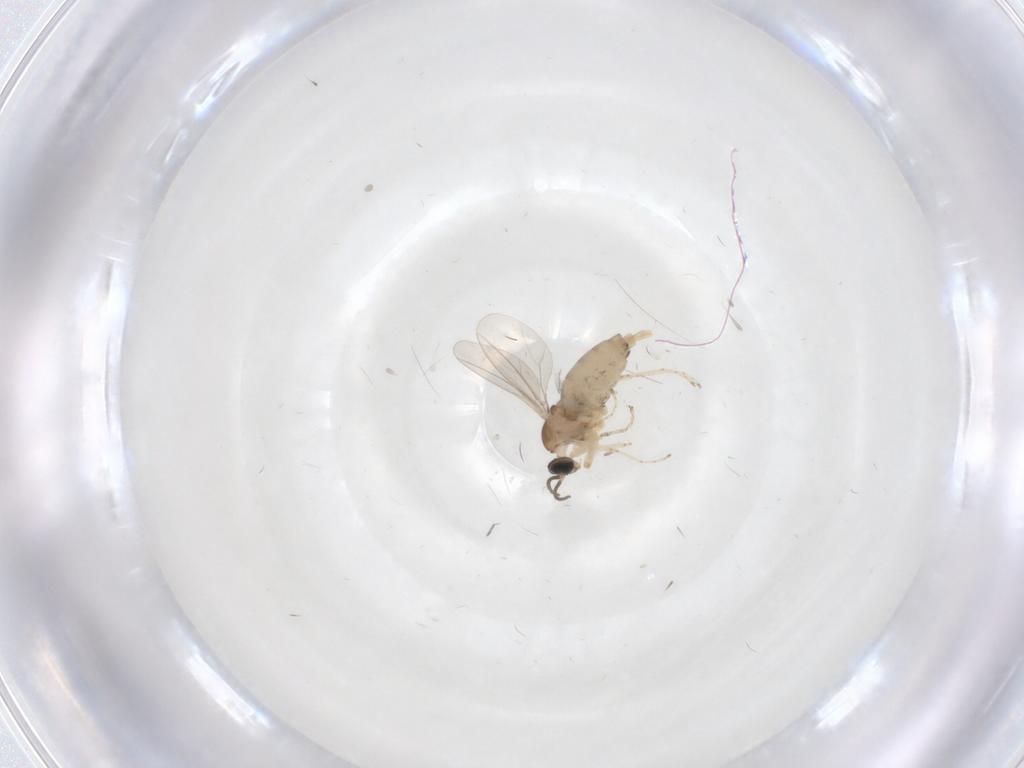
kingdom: Animalia
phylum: Arthropoda
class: Insecta
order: Diptera
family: Cecidomyiidae
